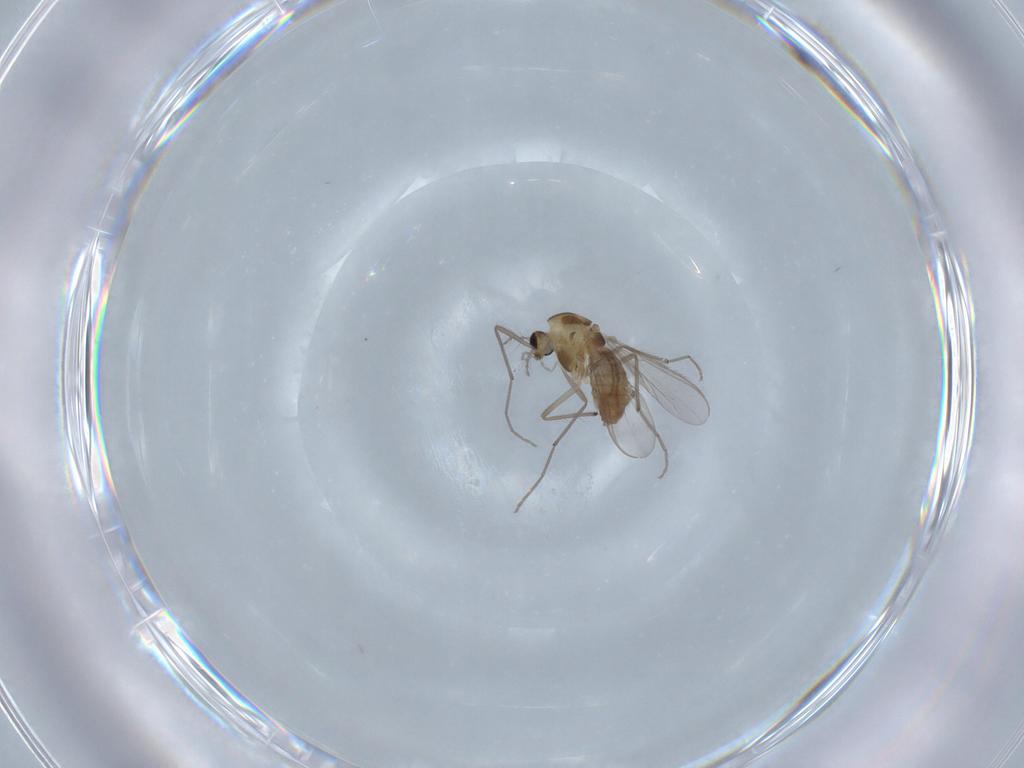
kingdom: Animalia
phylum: Arthropoda
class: Insecta
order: Diptera
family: Chironomidae
